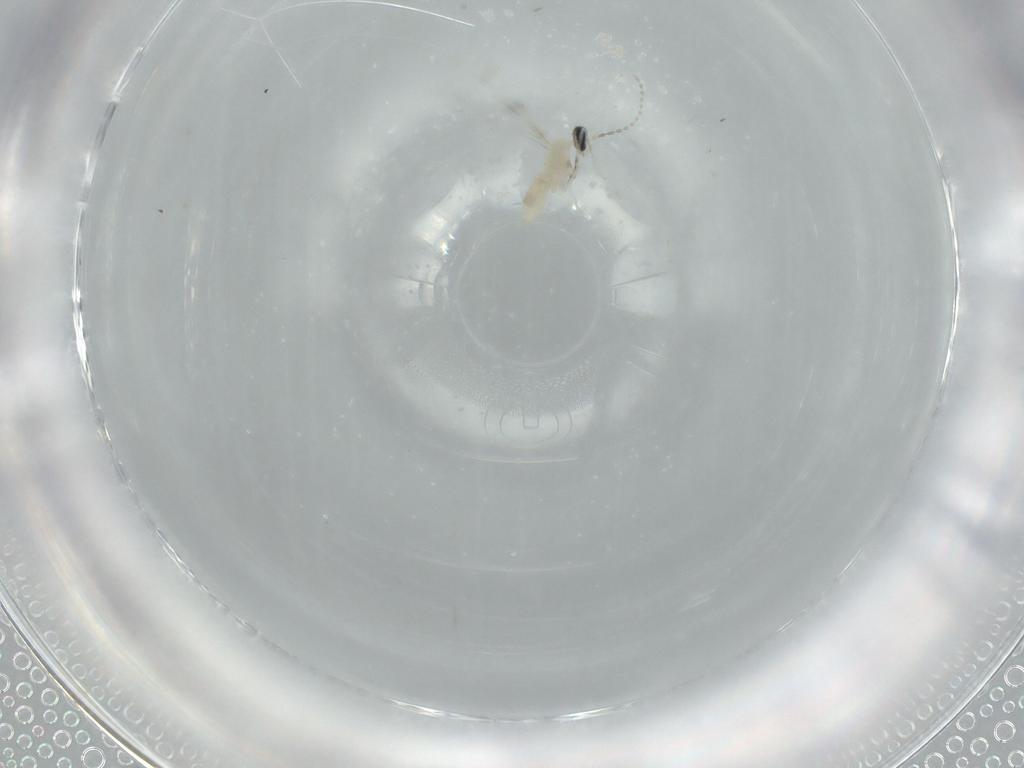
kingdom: Animalia
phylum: Arthropoda
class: Insecta
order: Diptera
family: Cecidomyiidae
